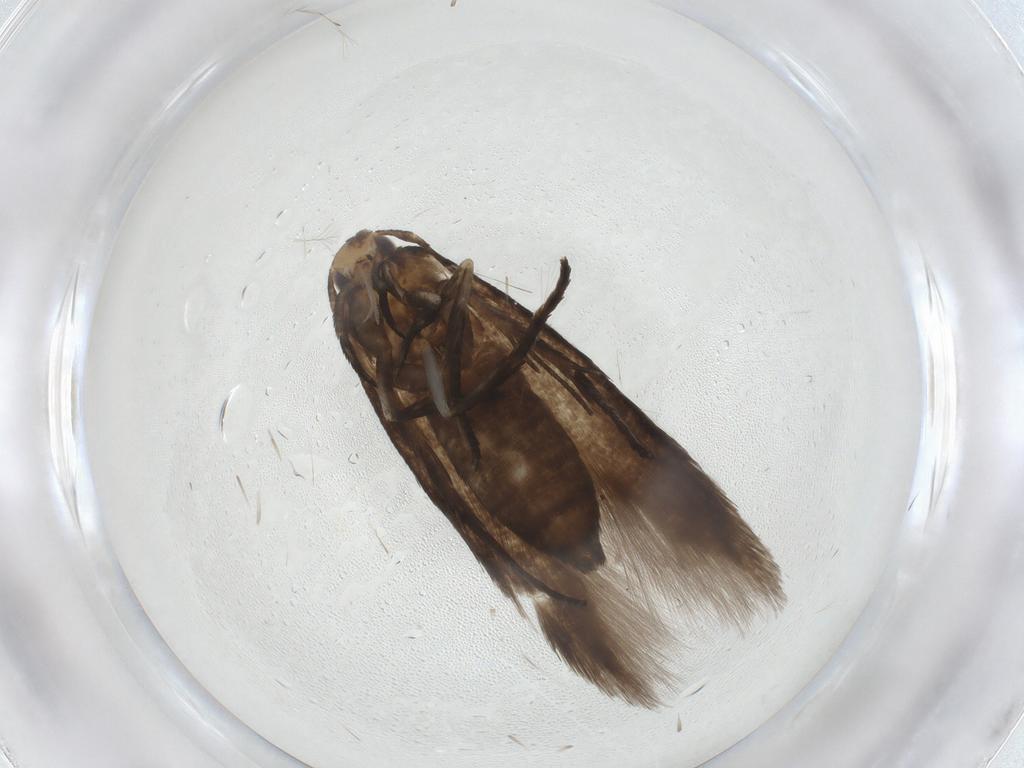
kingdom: Animalia
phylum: Arthropoda
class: Insecta
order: Lepidoptera
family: Cosmopterigidae
